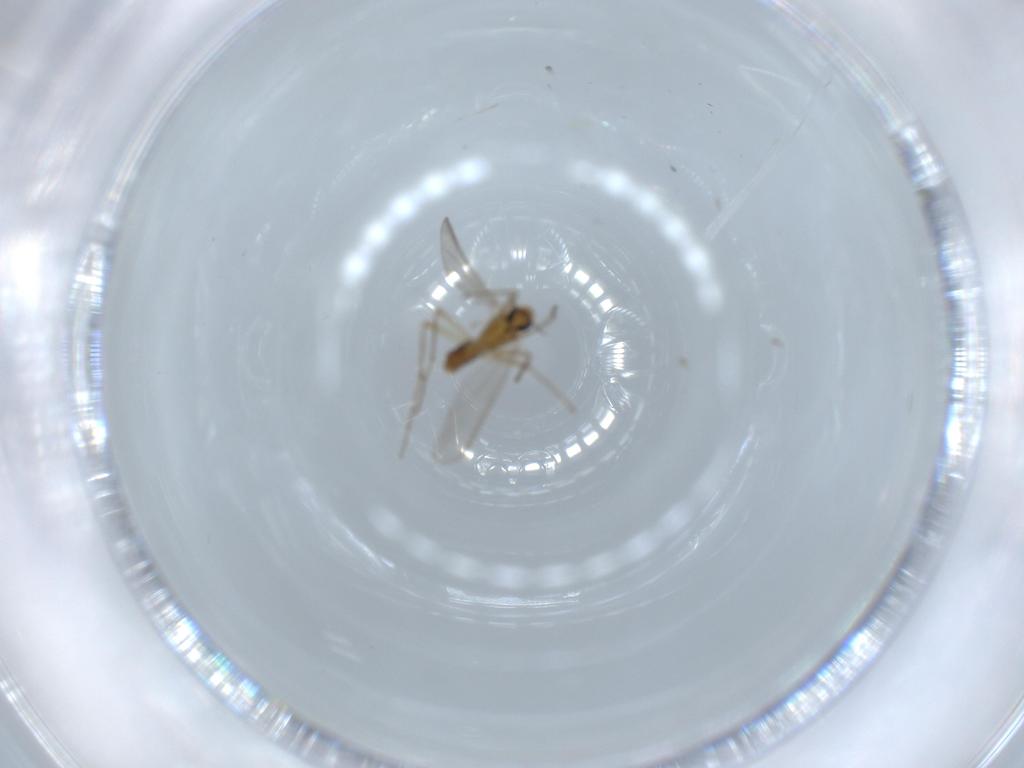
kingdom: Animalia
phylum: Arthropoda
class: Insecta
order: Diptera
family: Chironomidae
